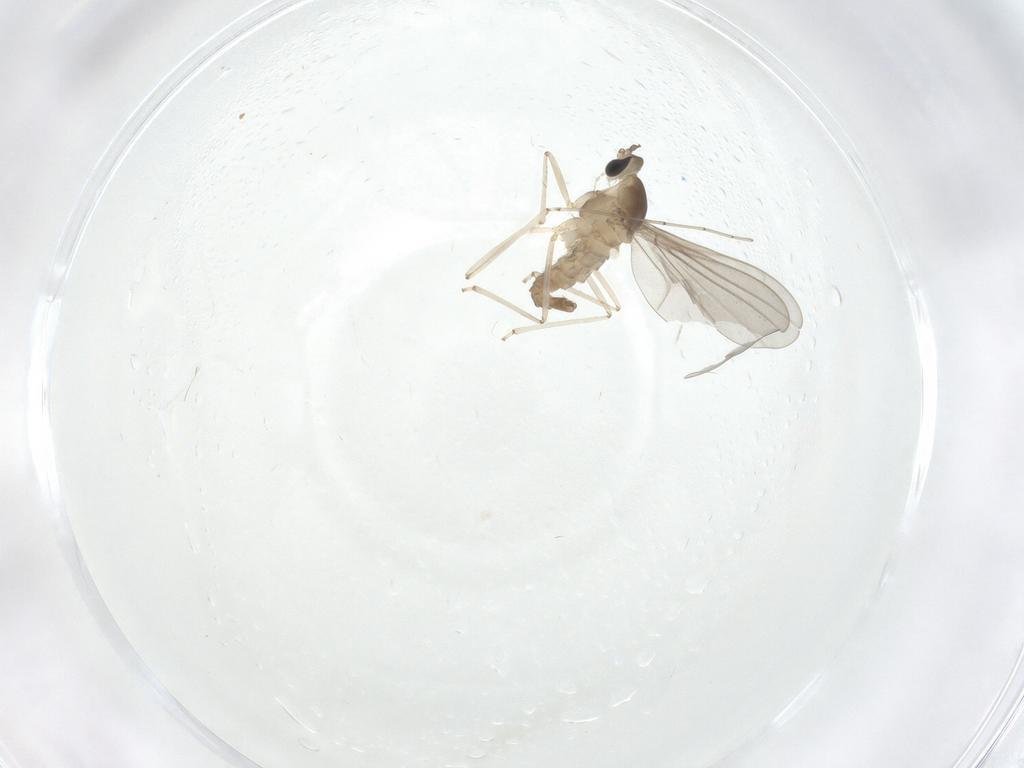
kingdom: Animalia
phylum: Arthropoda
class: Insecta
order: Diptera
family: Cecidomyiidae
